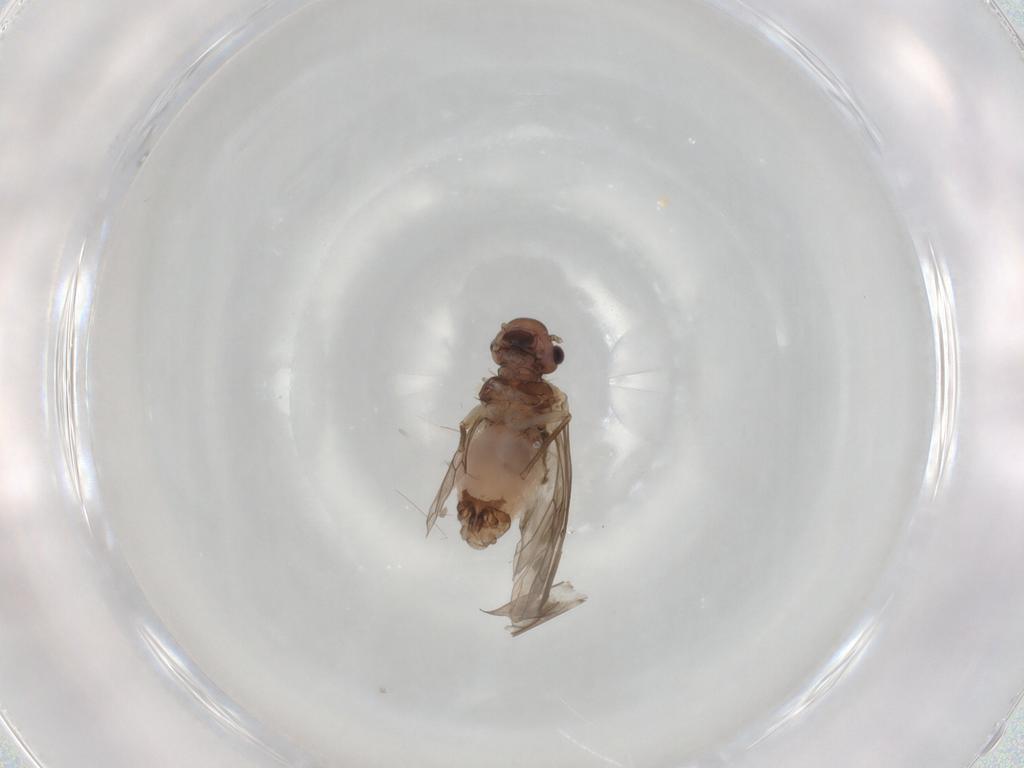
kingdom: Animalia
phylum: Arthropoda
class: Insecta
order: Psocodea
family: Peripsocidae
